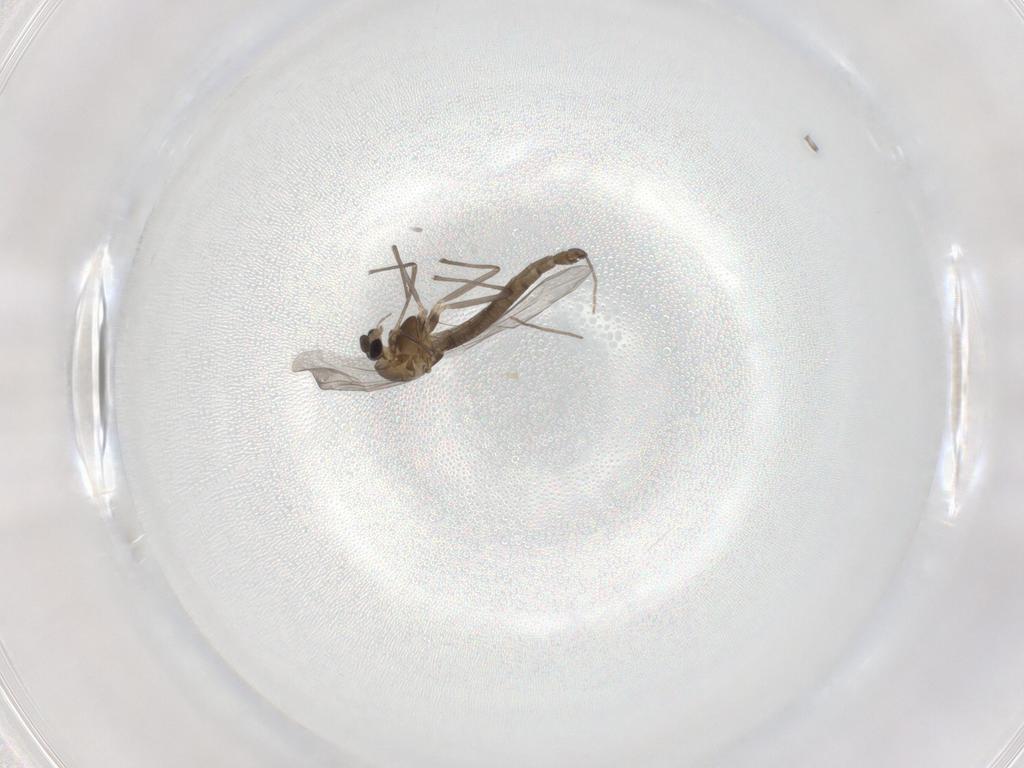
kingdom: Animalia
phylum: Arthropoda
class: Insecta
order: Diptera
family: Chironomidae
